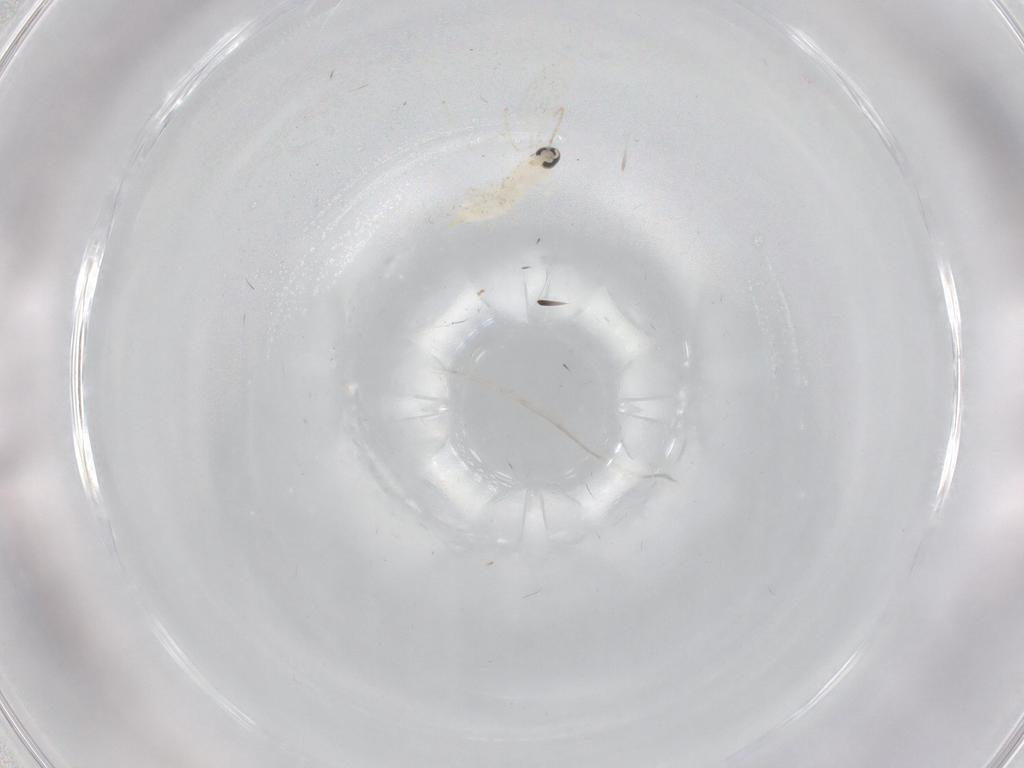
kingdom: Animalia
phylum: Arthropoda
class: Insecta
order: Diptera
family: Cecidomyiidae
